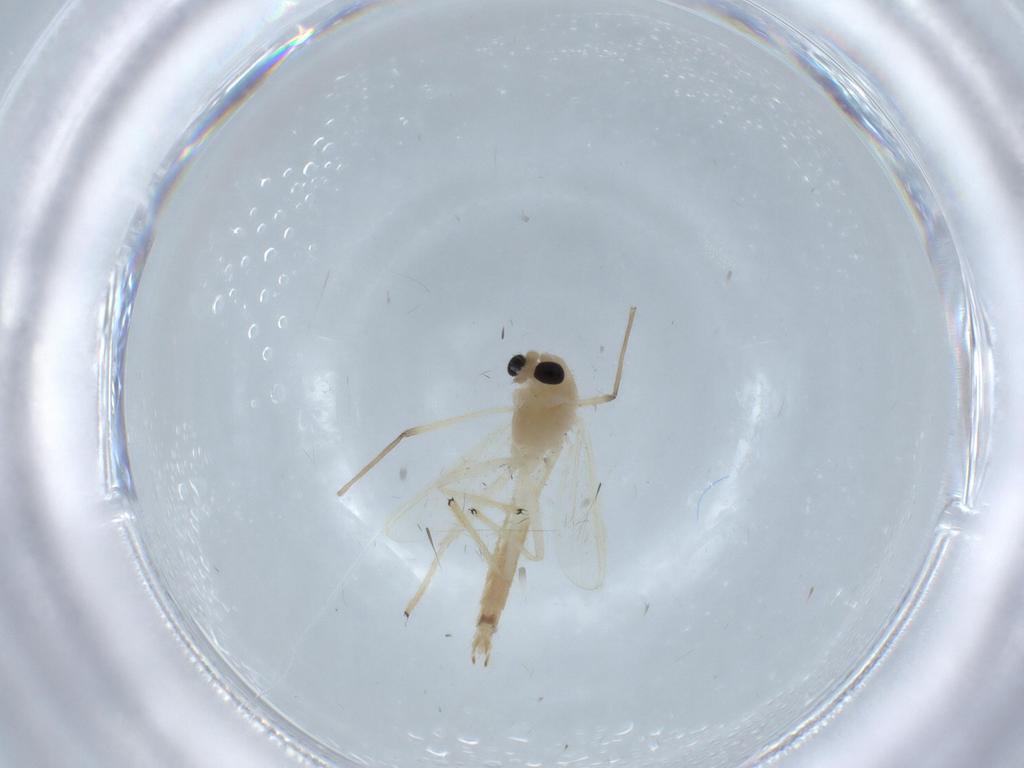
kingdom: Animalia
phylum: Arthropoda
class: Insecta
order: Diptera
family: Chironomidae
